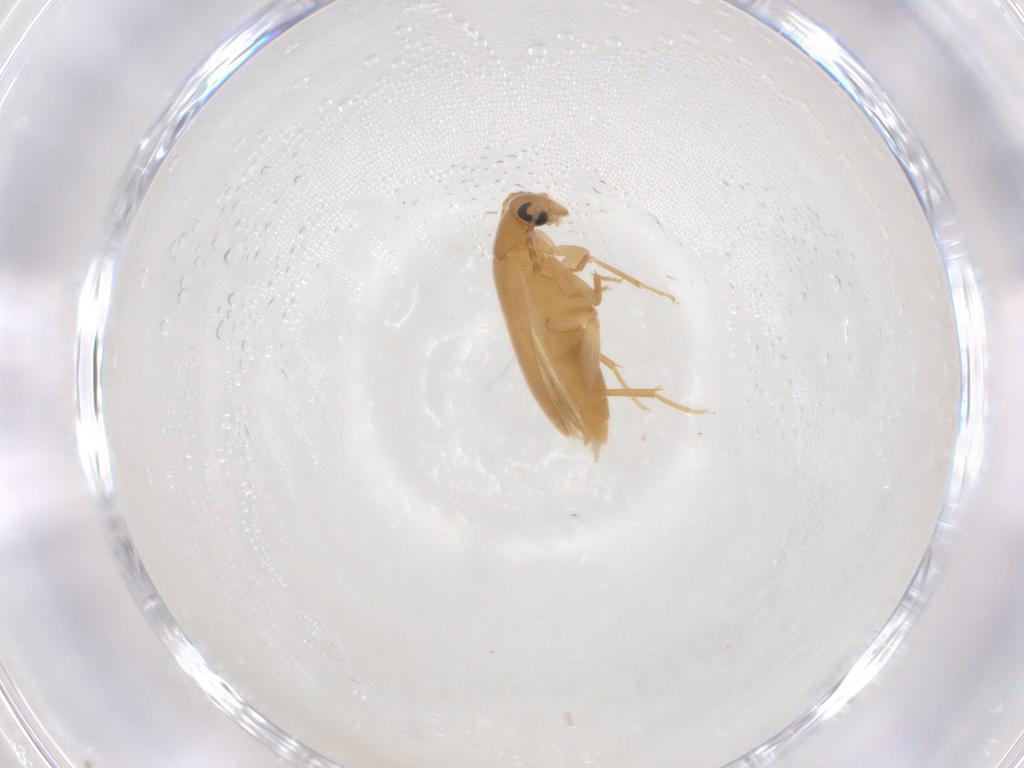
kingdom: Animalia
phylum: Arthropoda
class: Insecta
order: Coleoptera
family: Scraptiidae
